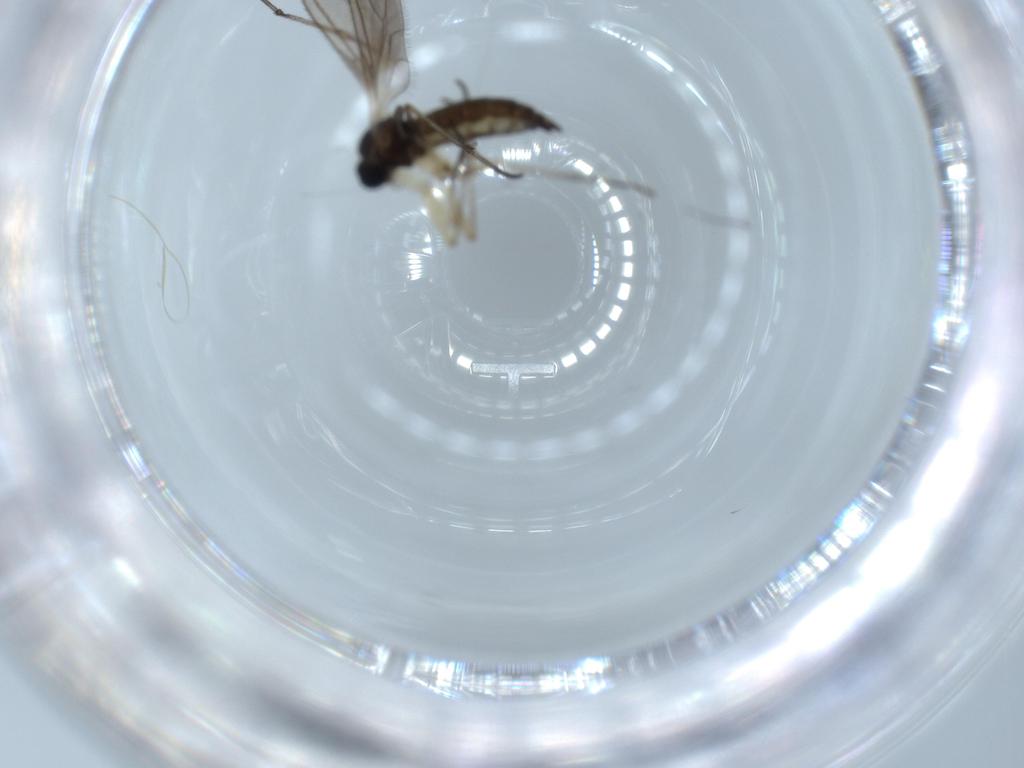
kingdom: Animalia
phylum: Arthropoda
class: Insecta
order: Diptera
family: Sciaridae
